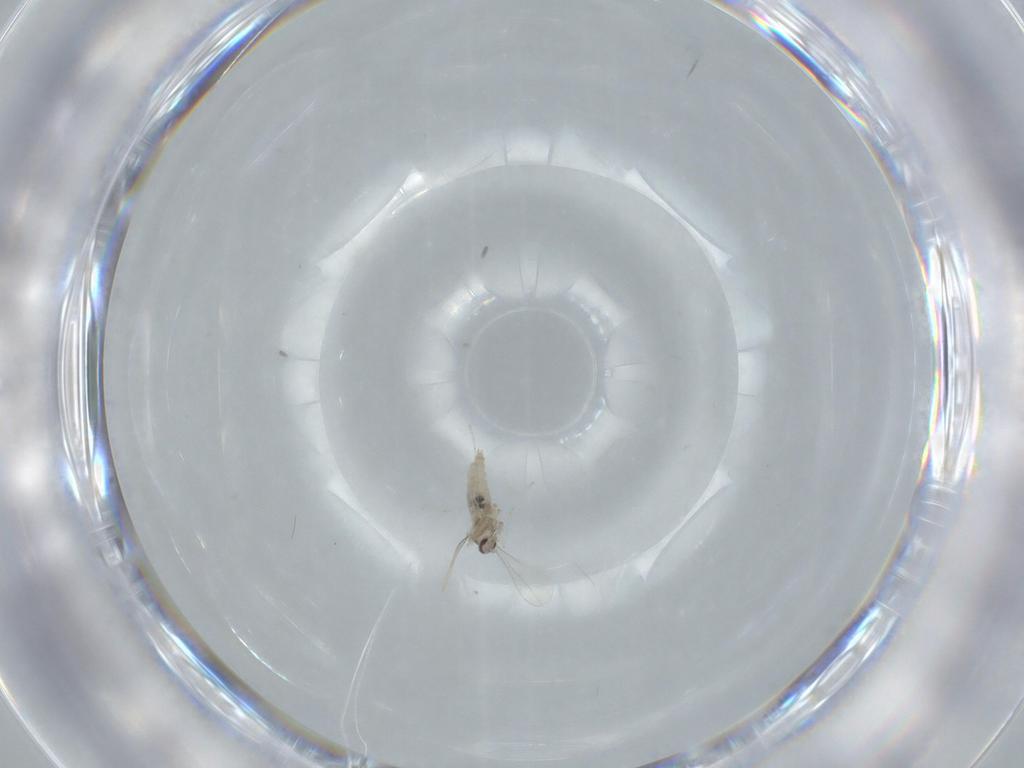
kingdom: Animalia
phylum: Arthropoda
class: Insecta
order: Diptera
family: Cecidomyiidae
